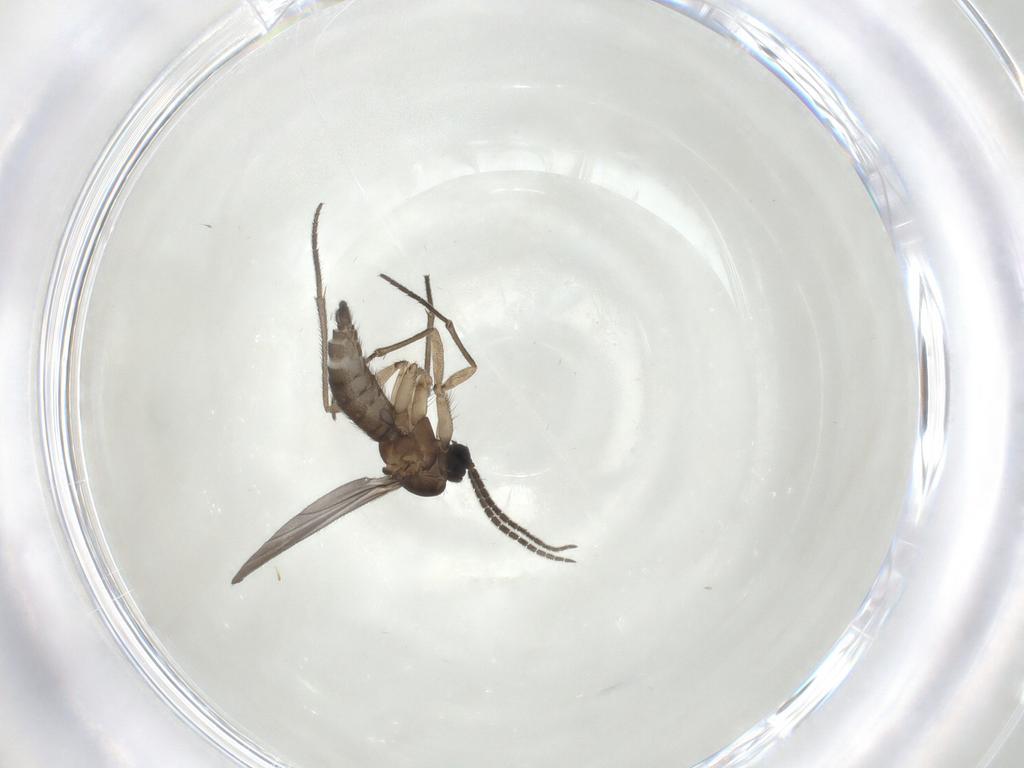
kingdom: Animalia
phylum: Arthropoda
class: Insecta
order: Diptera
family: Sciaridae
